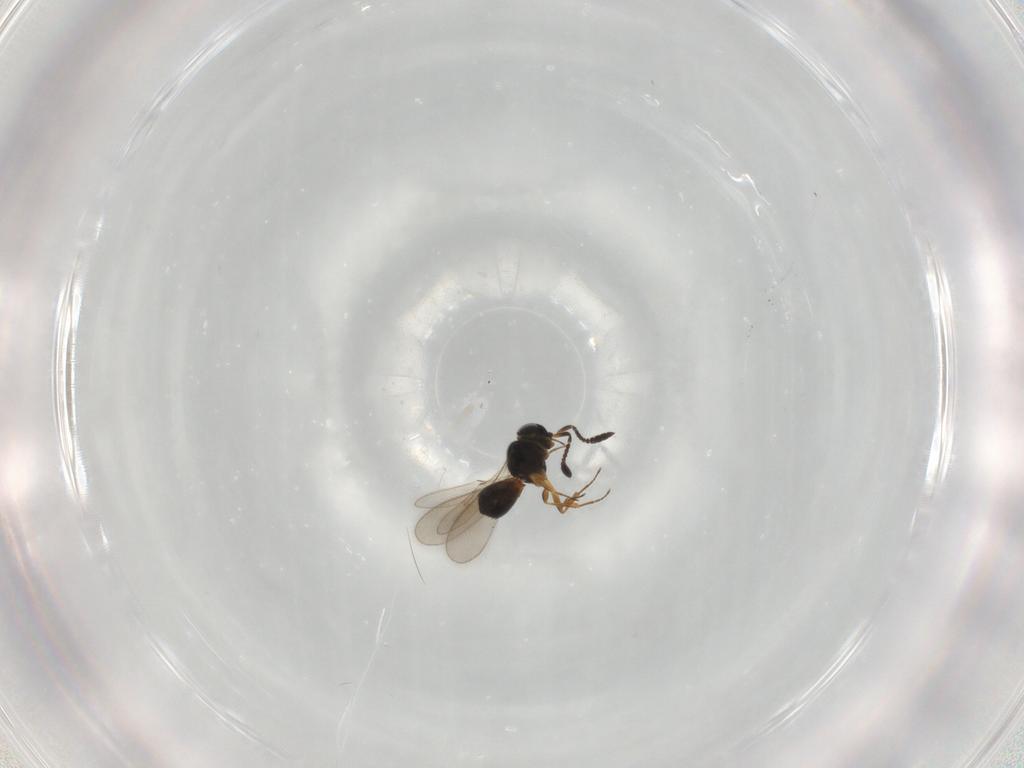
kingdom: Animalia
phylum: Arthropoda
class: Insecta
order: Hymenoptera
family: Scelionidae
